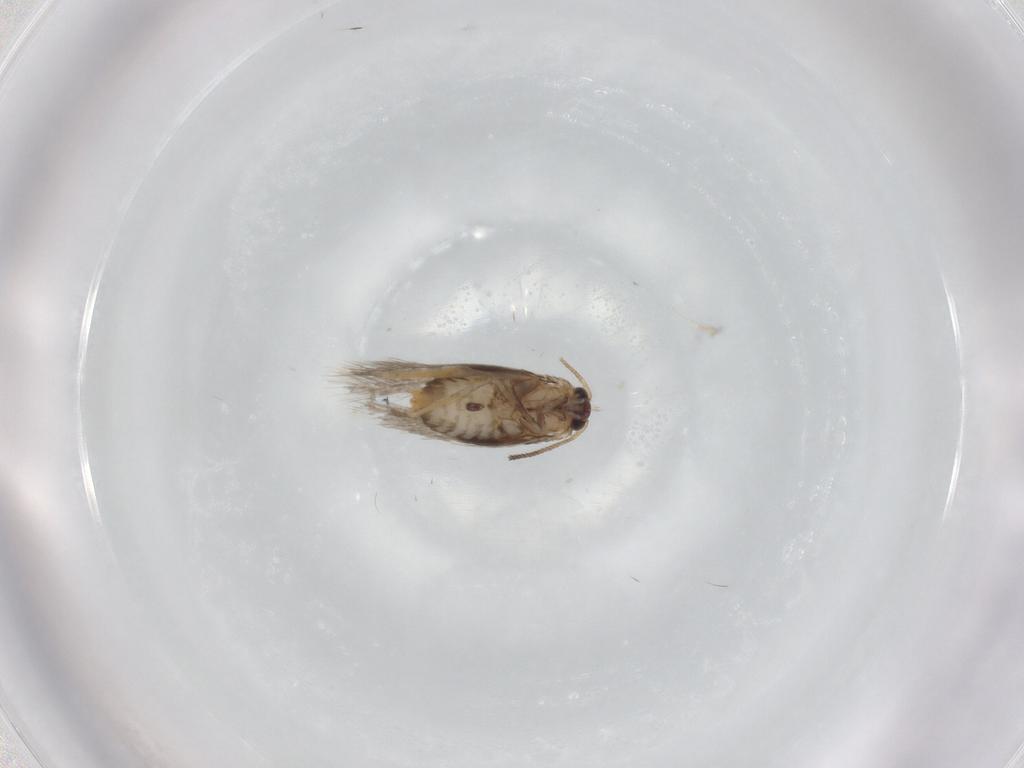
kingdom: Animalia
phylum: Arthropoda
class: Insecta
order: Lepidoptera
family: Nepticulidae
